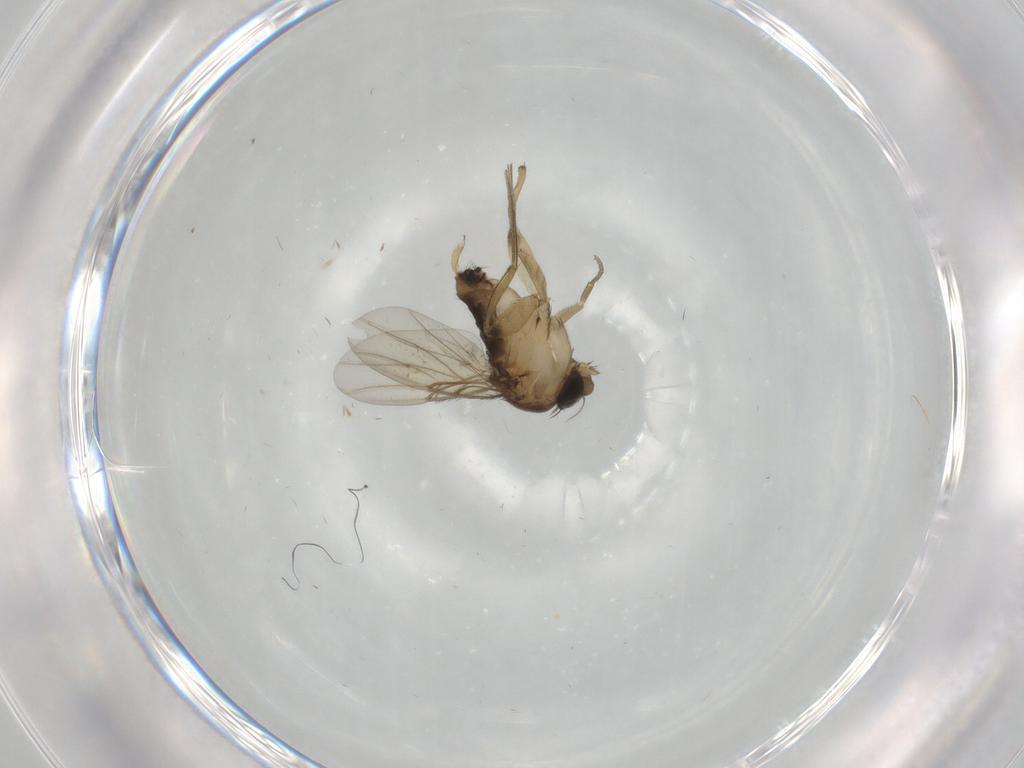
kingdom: Animalia
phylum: Arthropoda
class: Insecta
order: Diptera
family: Phoridae
